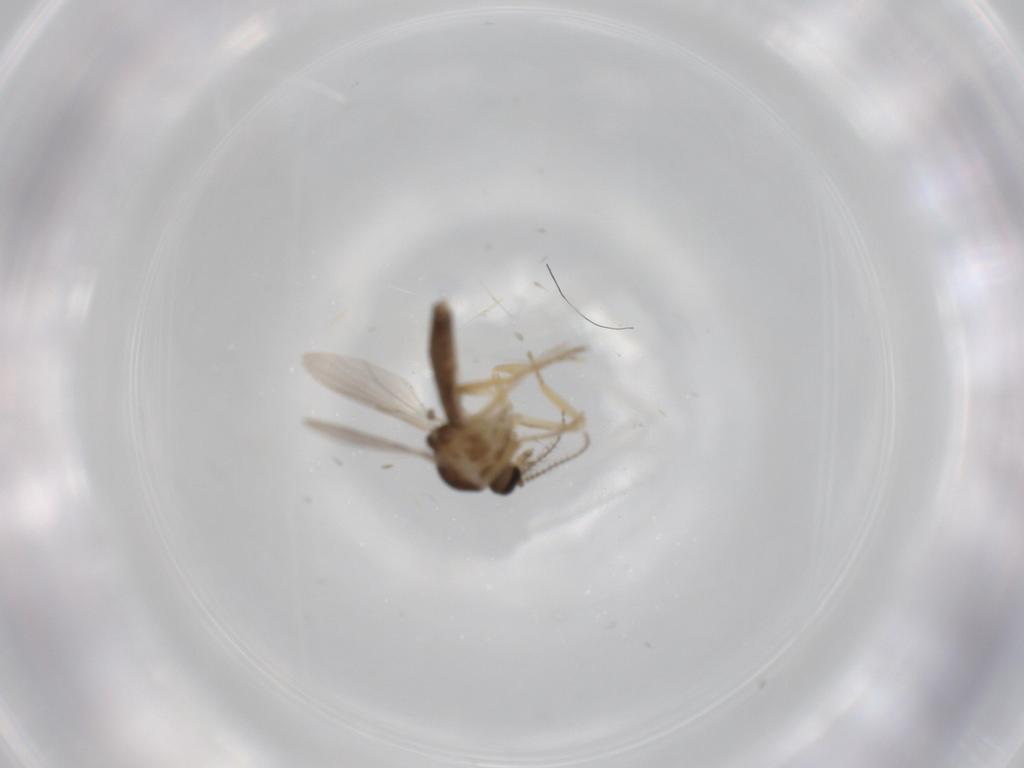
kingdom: Animalia
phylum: Arthropoda
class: Insecta
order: Diptera
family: Ceratopogonidae
